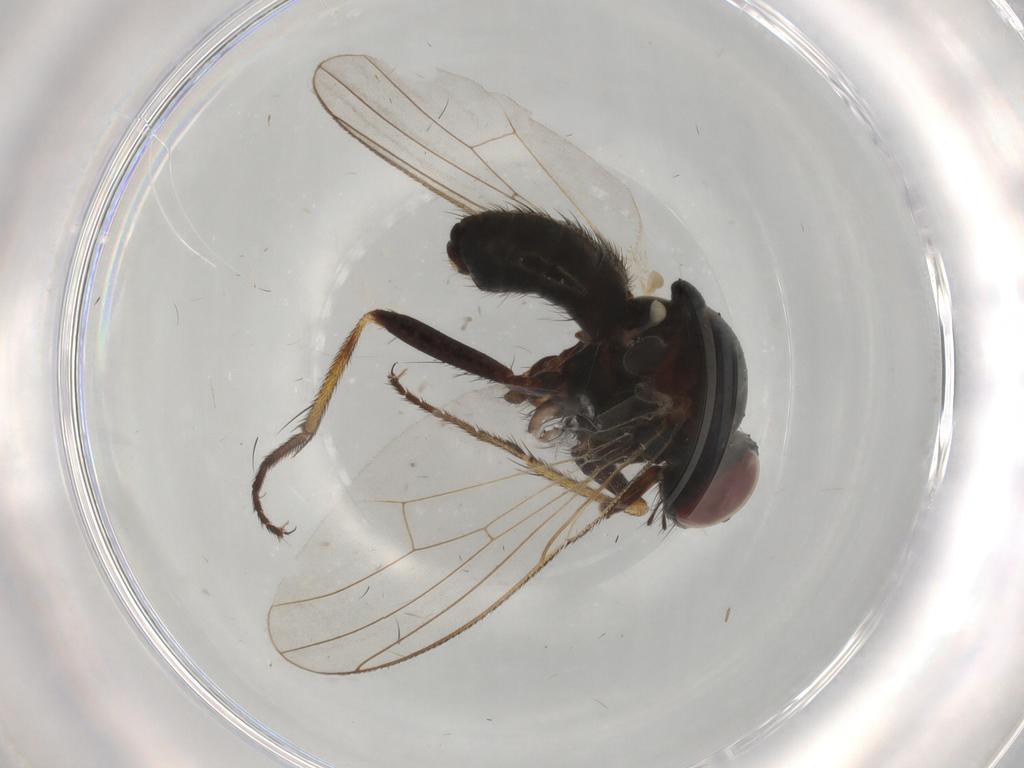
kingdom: Animalia
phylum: Arthropoda
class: Insecta
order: Diptera
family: Muscidae
